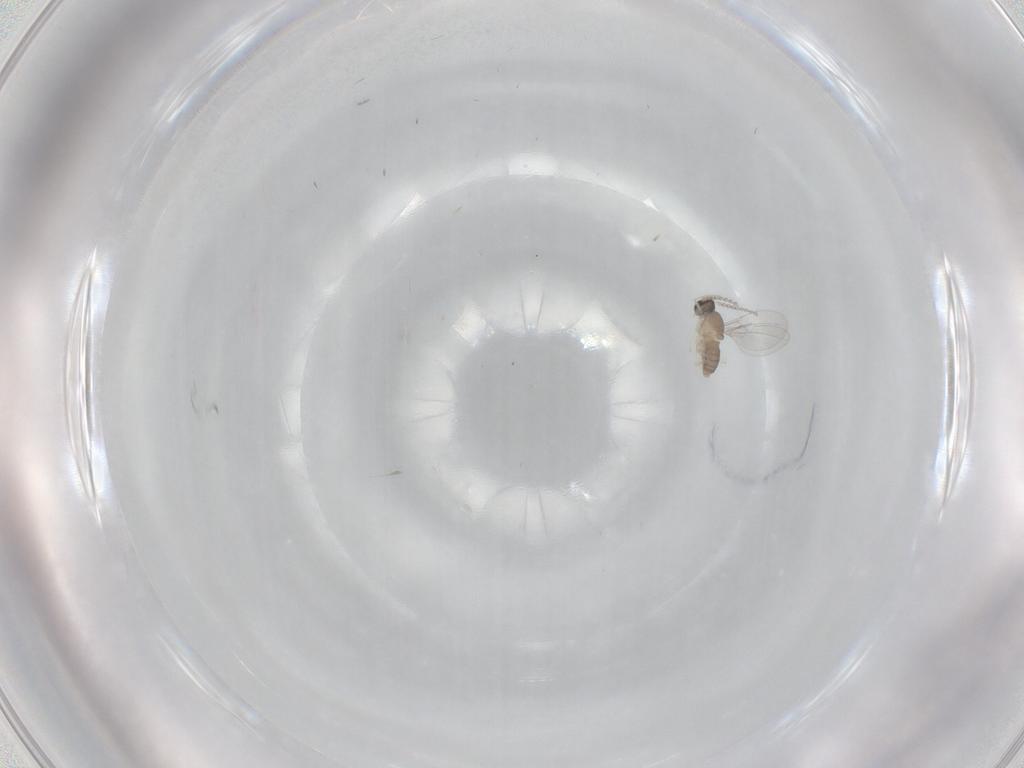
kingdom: Animalia
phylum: Arthropoda
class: Insecta
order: Diptera
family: Cecidomyiidae
